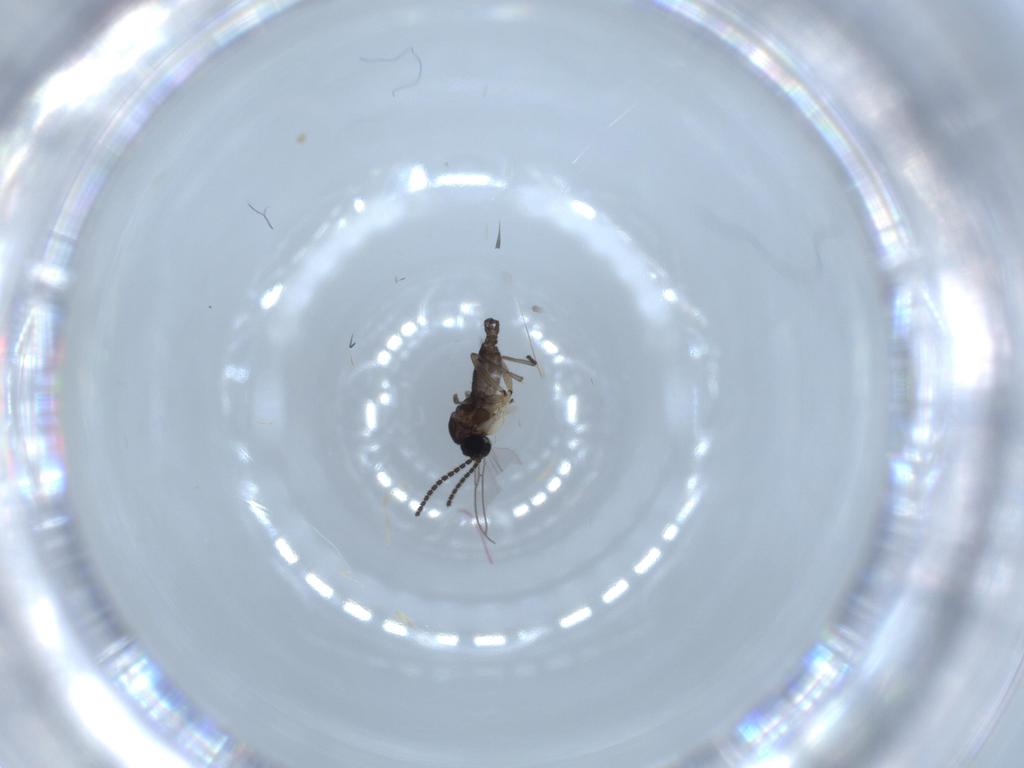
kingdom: Animalia
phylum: Arthropoda
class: Insecta
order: Diptera
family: Sciaridae
